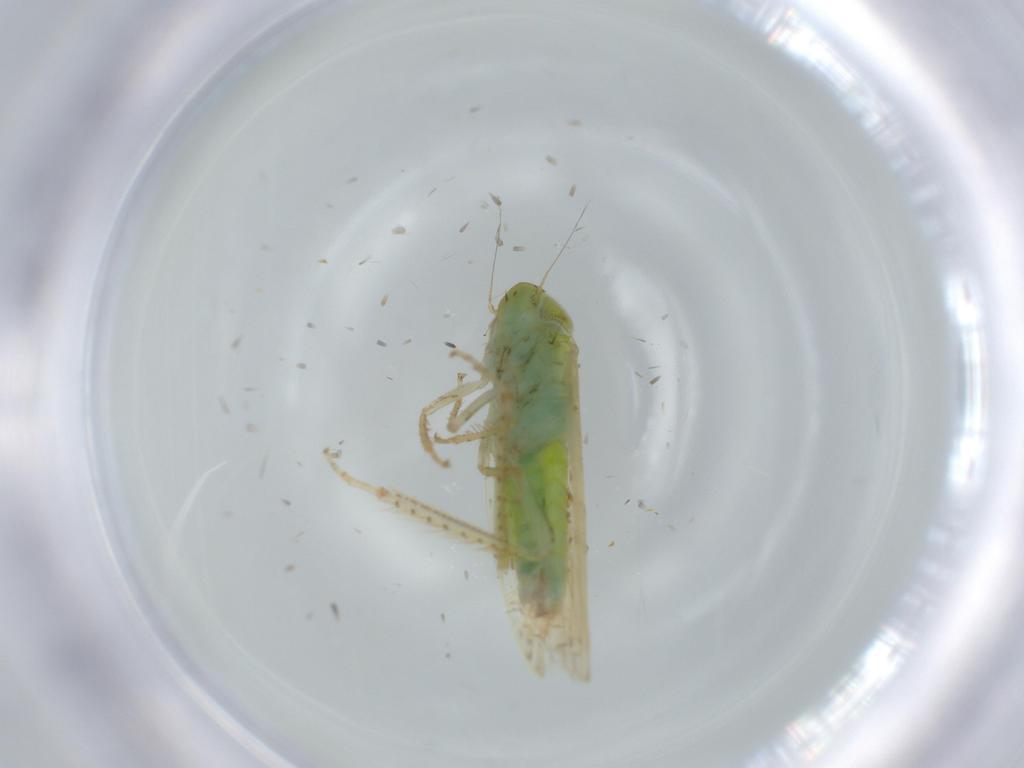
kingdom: Animalia
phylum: Arthropoda
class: Insecta
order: Hemiptera
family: Cicadellidae
